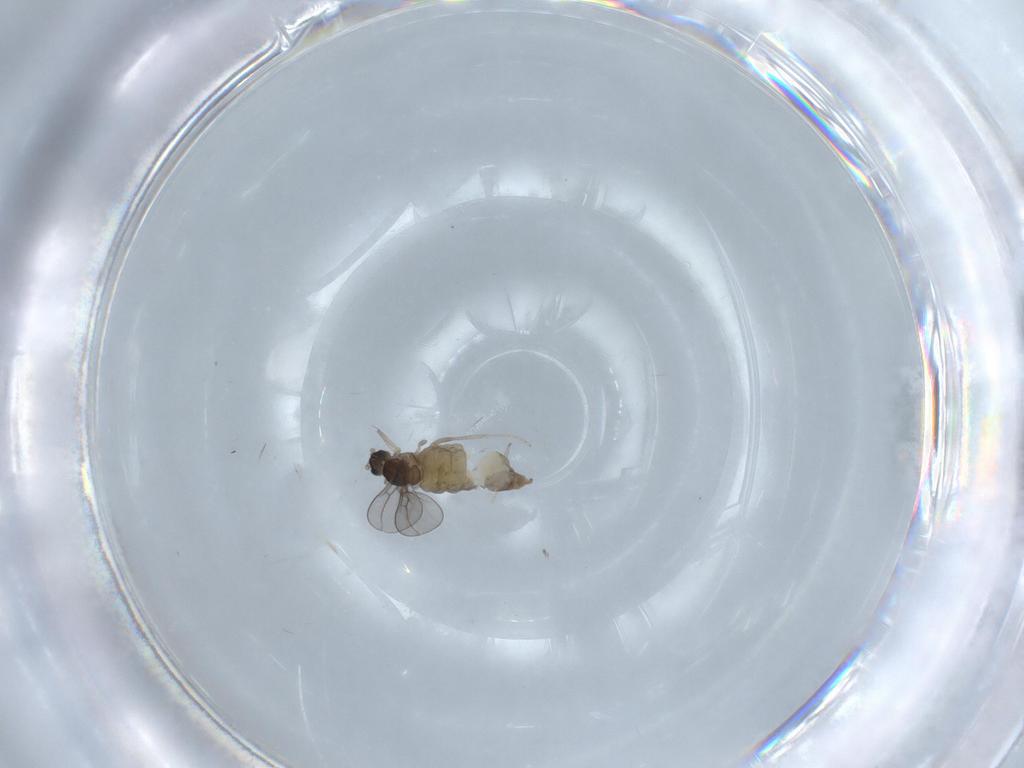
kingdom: Animalia
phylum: Arthropoda
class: Insecta
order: Diptera
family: Cecidomyiidae
